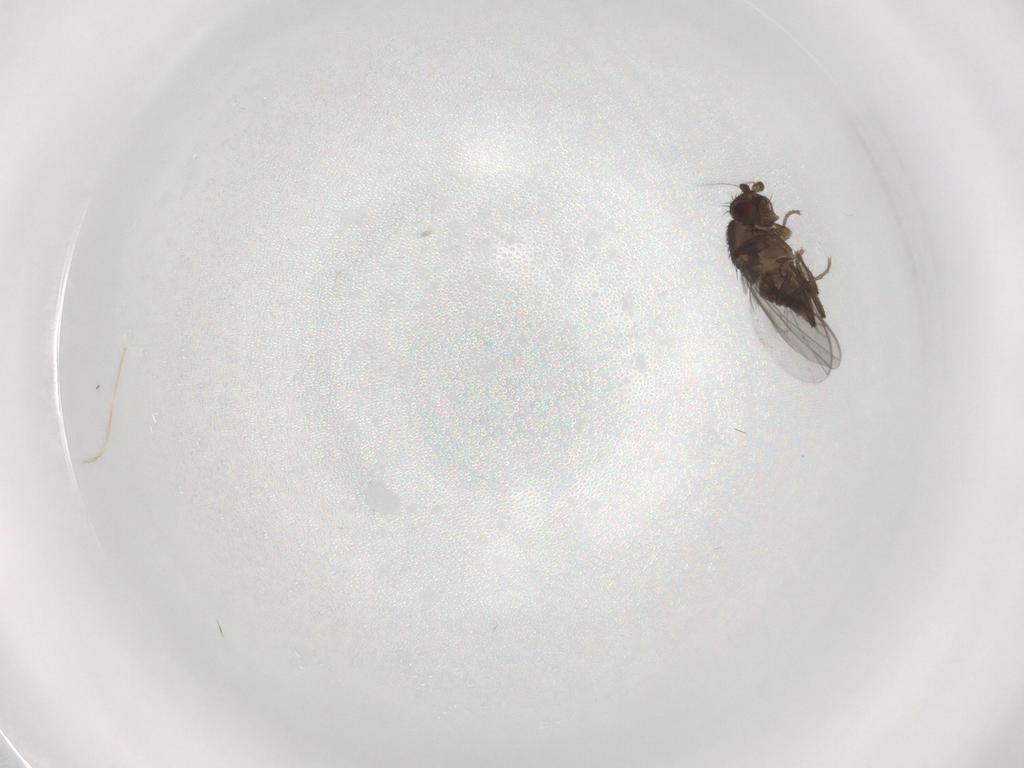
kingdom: Animalia
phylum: Arthropoda
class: Insecta
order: Diptera
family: Sphaeroceridae
